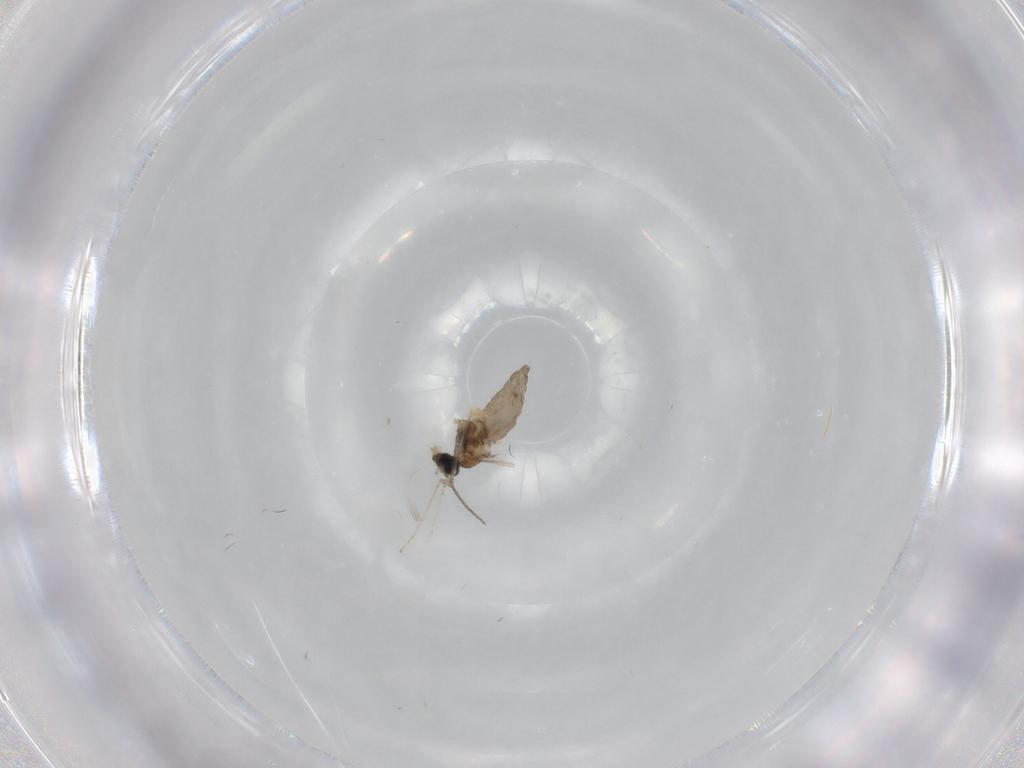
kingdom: Animalia
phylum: Arthropoda
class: Insecta
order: Diptera
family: Cecidomyiidae
